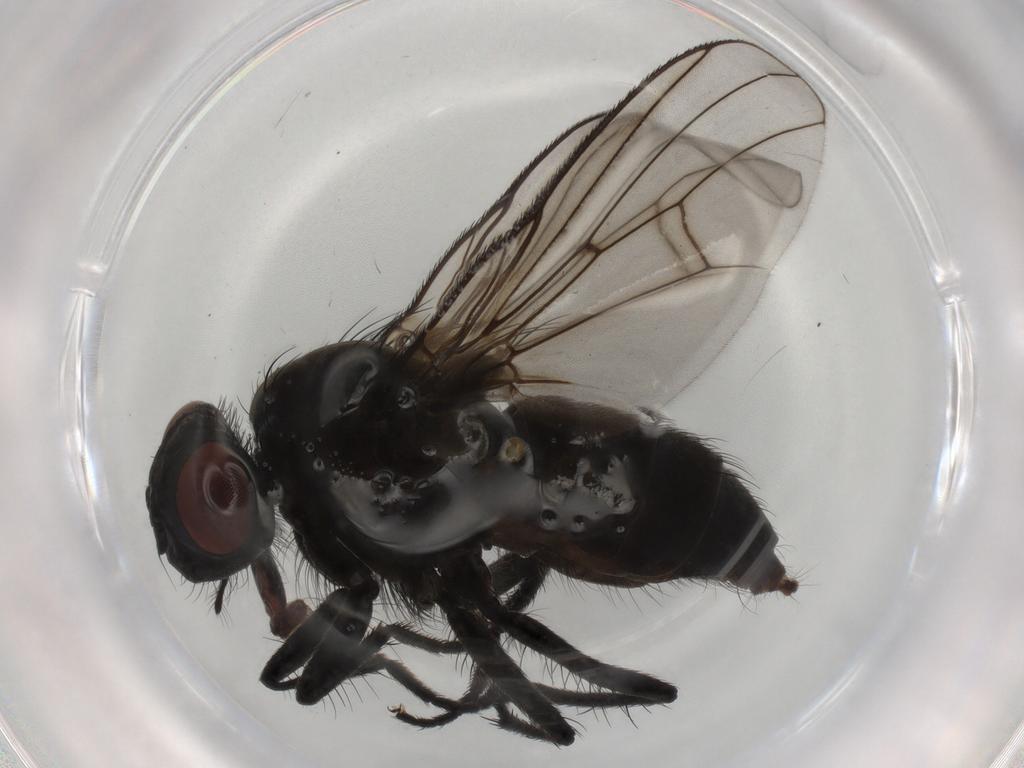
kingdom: Animalia
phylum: Arthropoda
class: Insecta
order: Diptera
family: Muscidae
